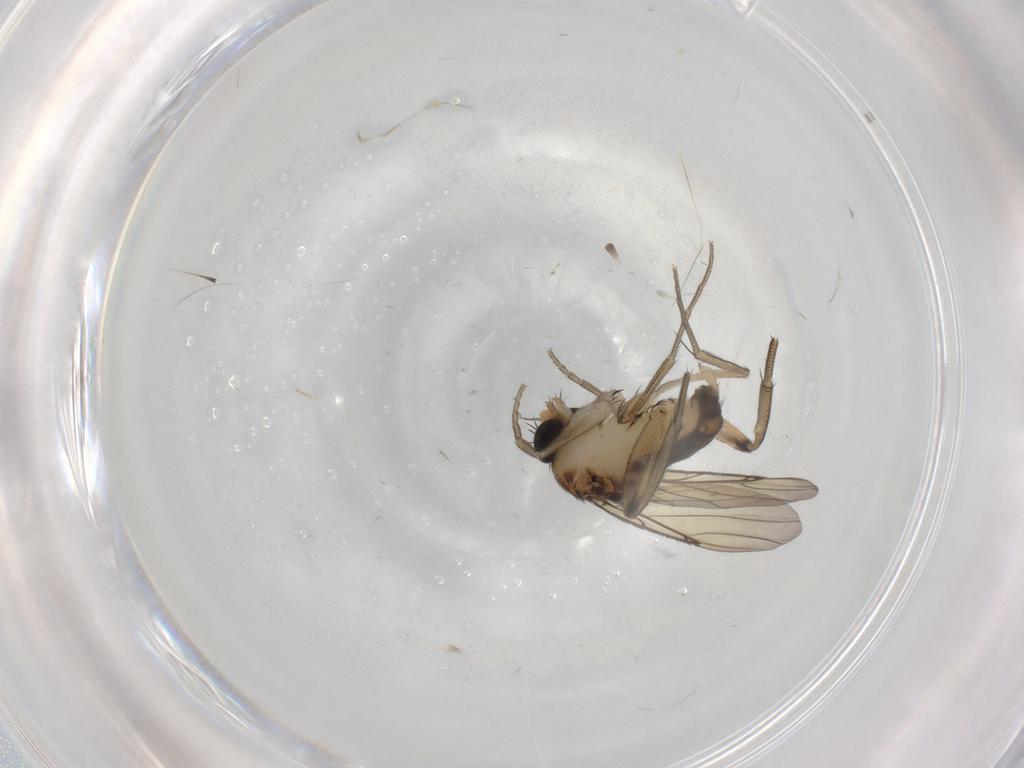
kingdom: Animalia
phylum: Arthropoda
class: Insecta
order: Diptera
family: Phoridae
